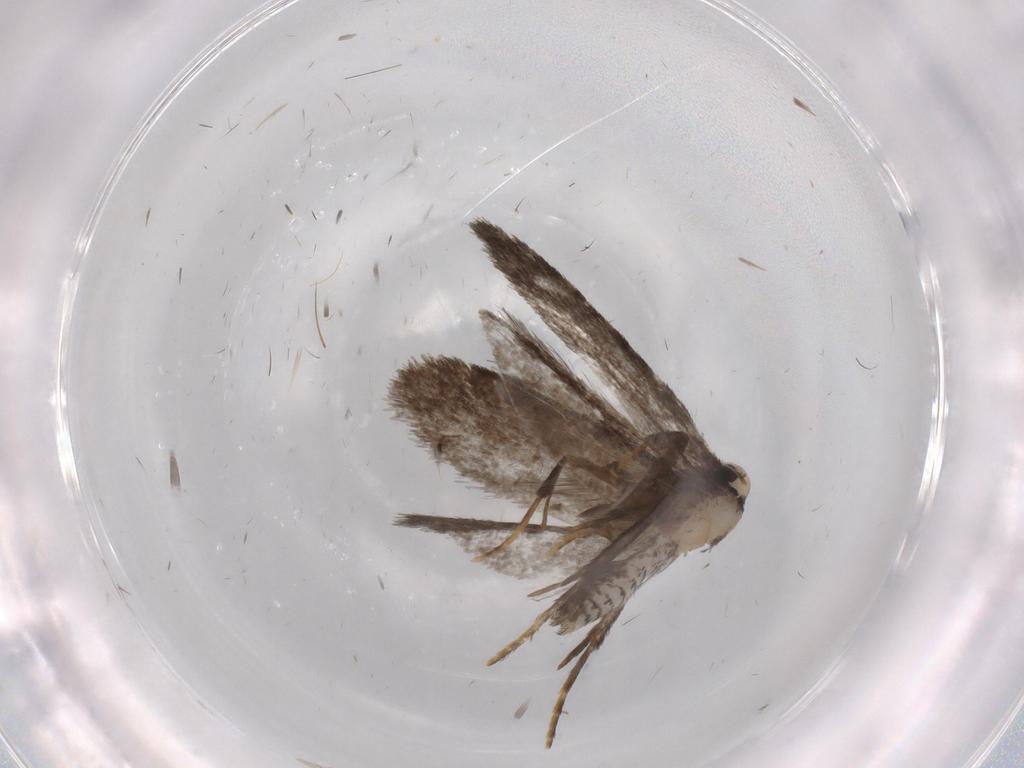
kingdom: Animalia
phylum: Arthropoda
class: Insecta
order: Lepidoptera
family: Psychidae
